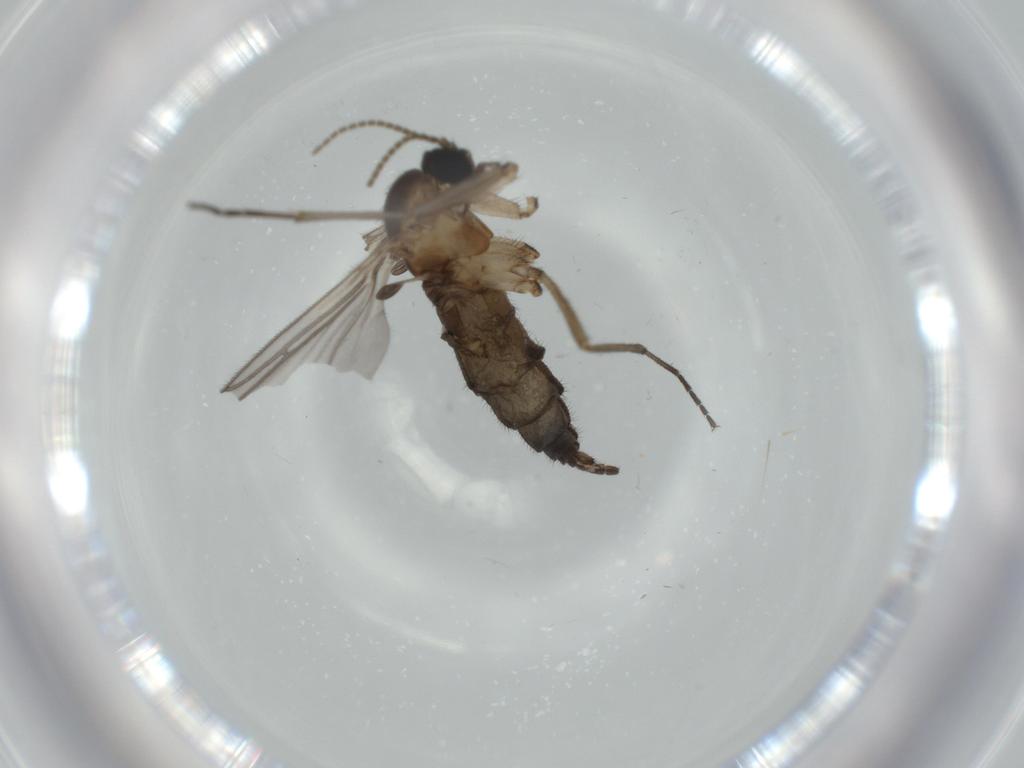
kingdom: Animalia
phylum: Arthropoda
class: Insecta
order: Diptera
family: Sciaridae
